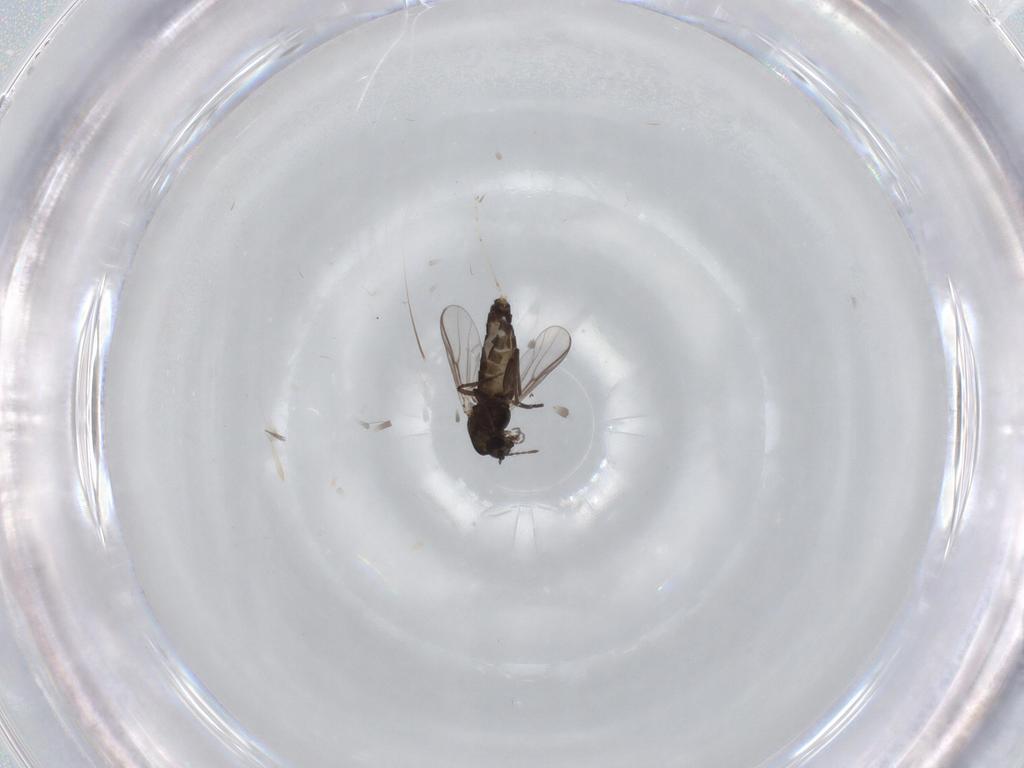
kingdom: Animalia
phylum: Arthropoda
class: Insecta
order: Diptera
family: Chironomidae
